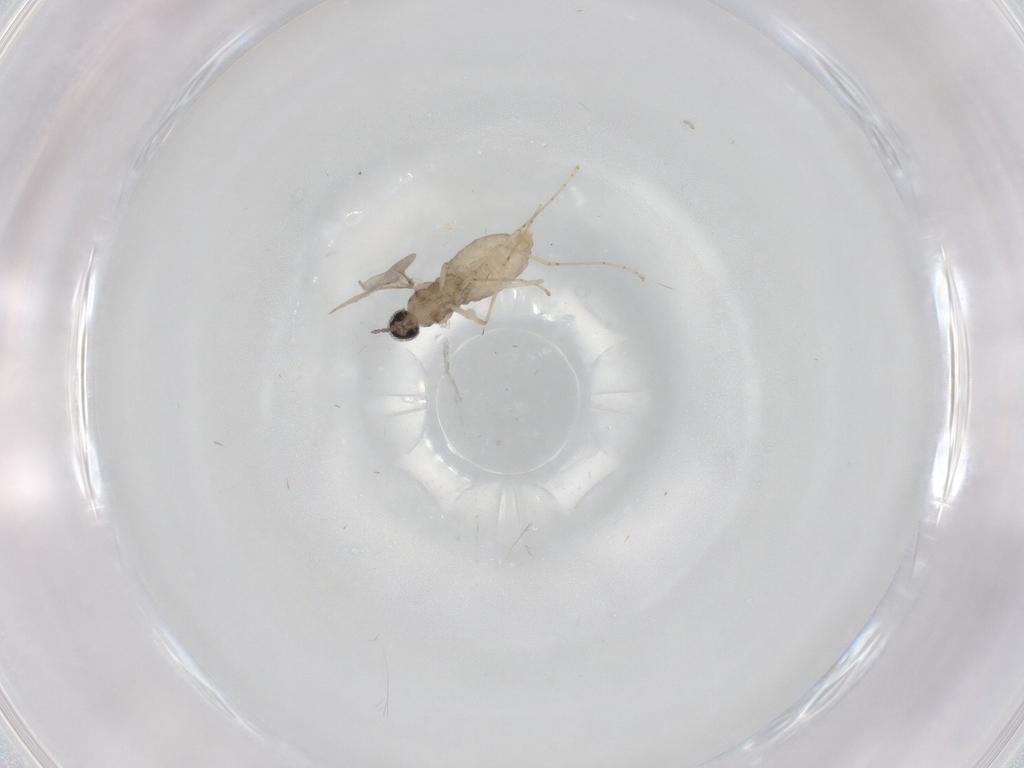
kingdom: Animalia
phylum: Arthropoda
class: Insecta
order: Diptera
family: Cecidomyiidae
